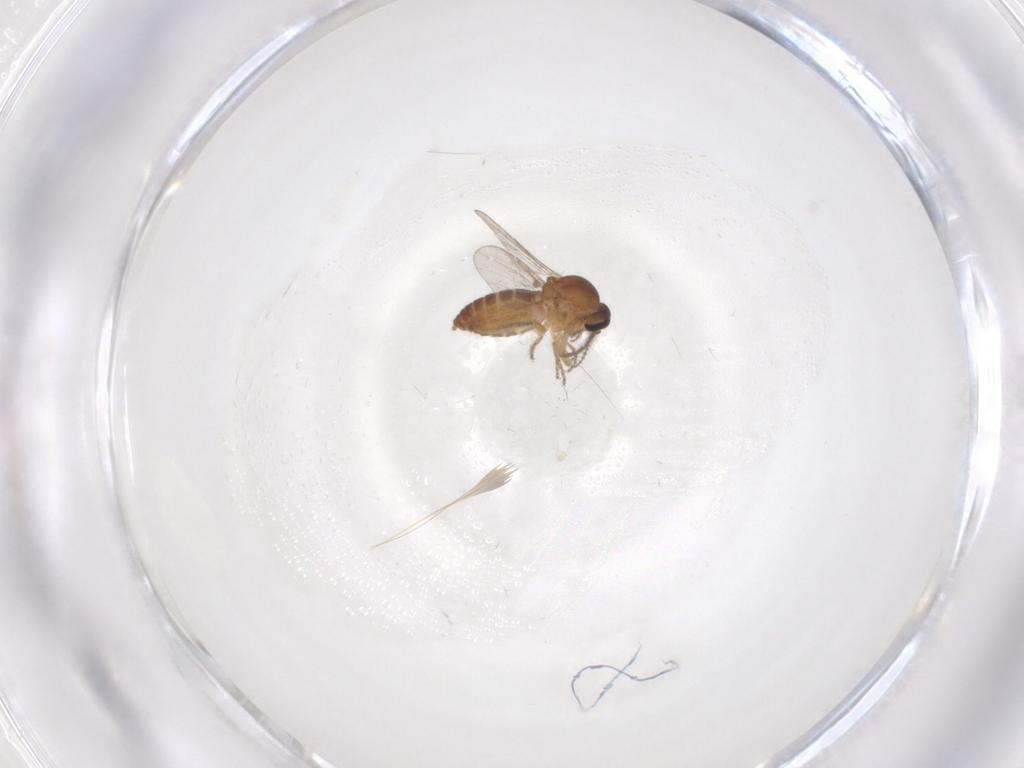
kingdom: Animalia
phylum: Arthropoda
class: Insecta
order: Diptera
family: Ceratopogonidae
